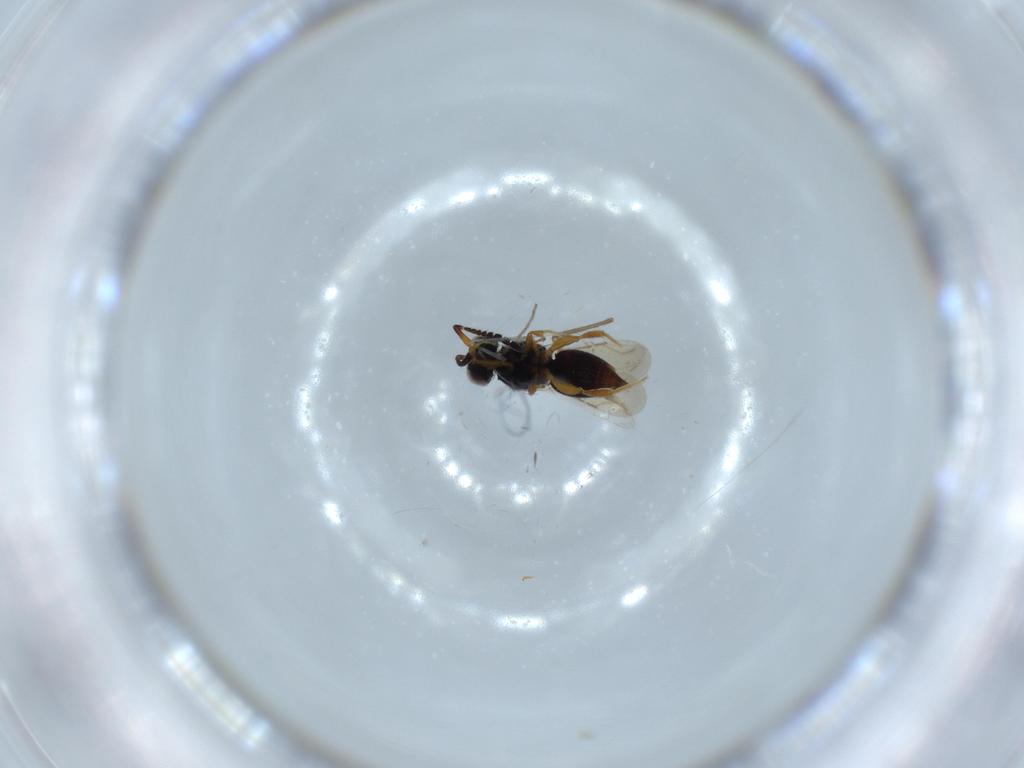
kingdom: Animalia
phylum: Arthropoda
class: Insecta
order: Hymenoptera
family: Ceraphronidae
